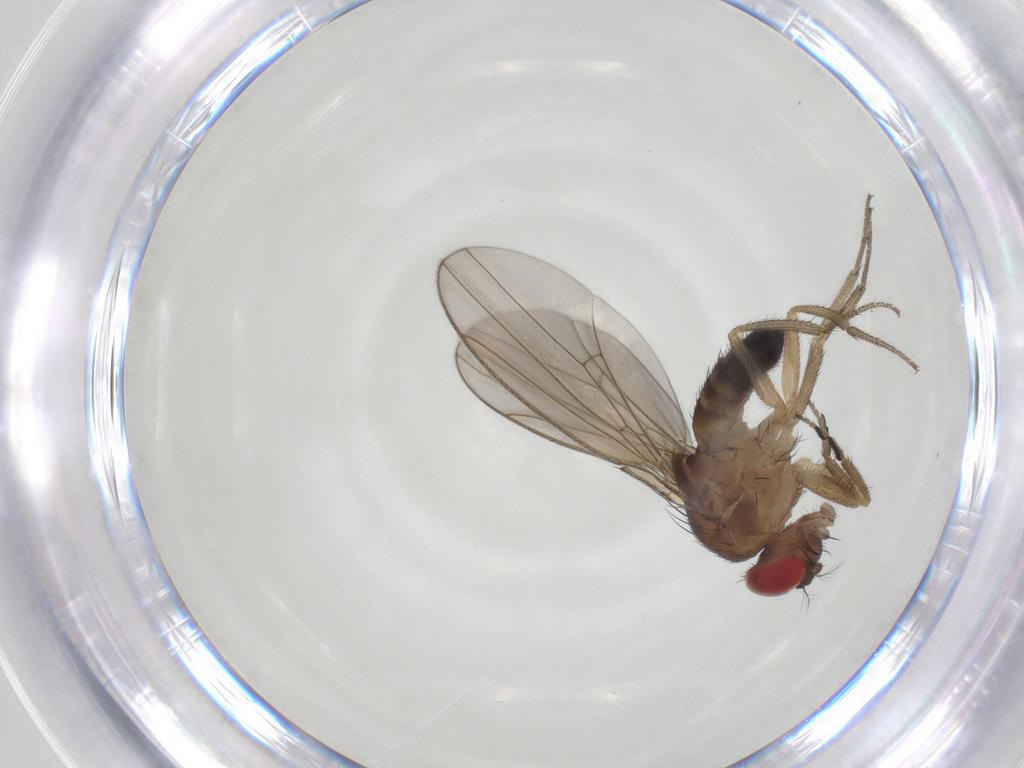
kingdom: Animalia
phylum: Arthropoda
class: Insecta
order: Diptera
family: Drosophilidae
